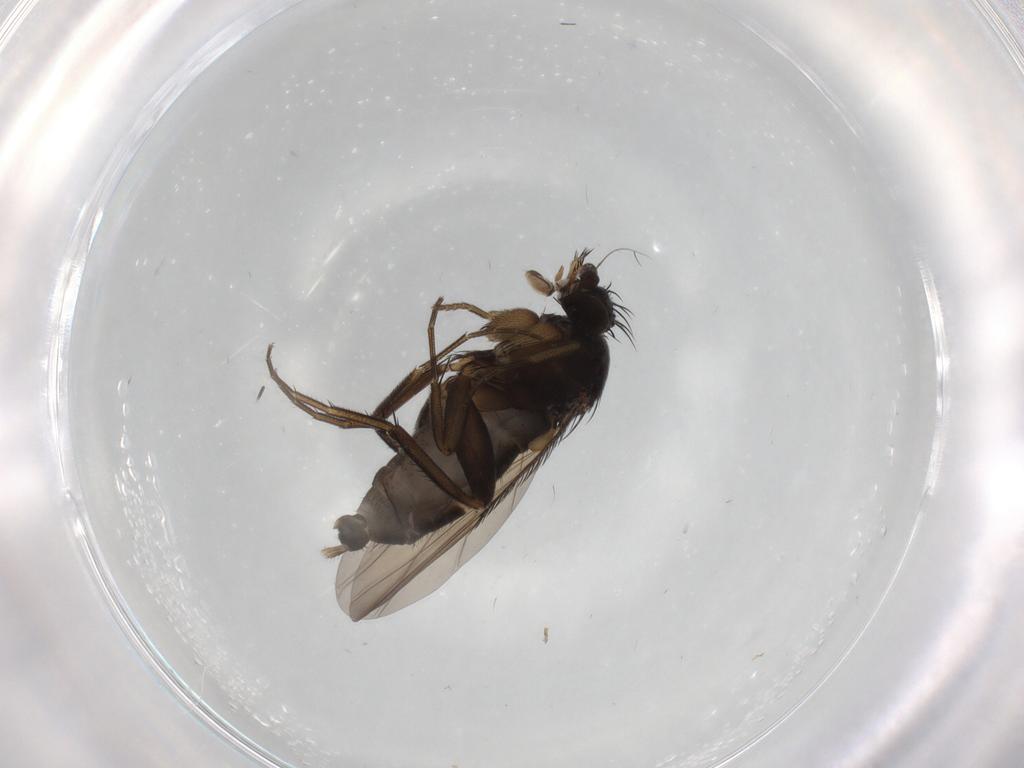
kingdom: Animalia
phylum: Arthropoda
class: Insecta
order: Diptera
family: Phoridae
